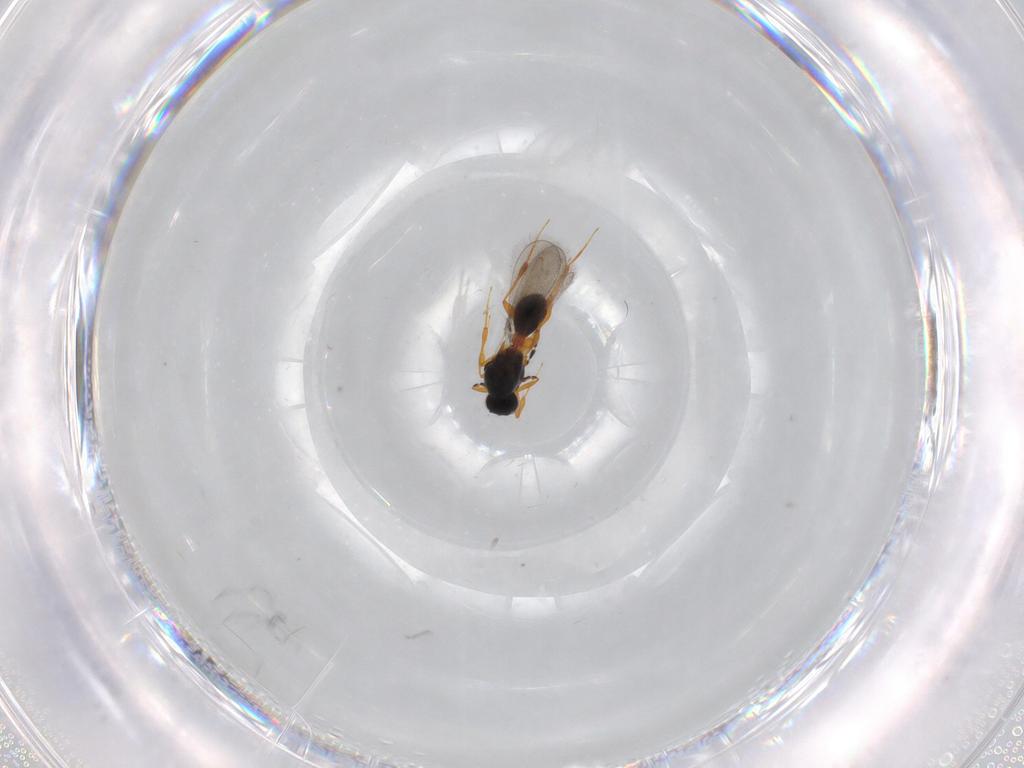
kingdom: Animalia
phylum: Arthropoda
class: Insecta
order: Hymenoptera
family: Platygastridae
